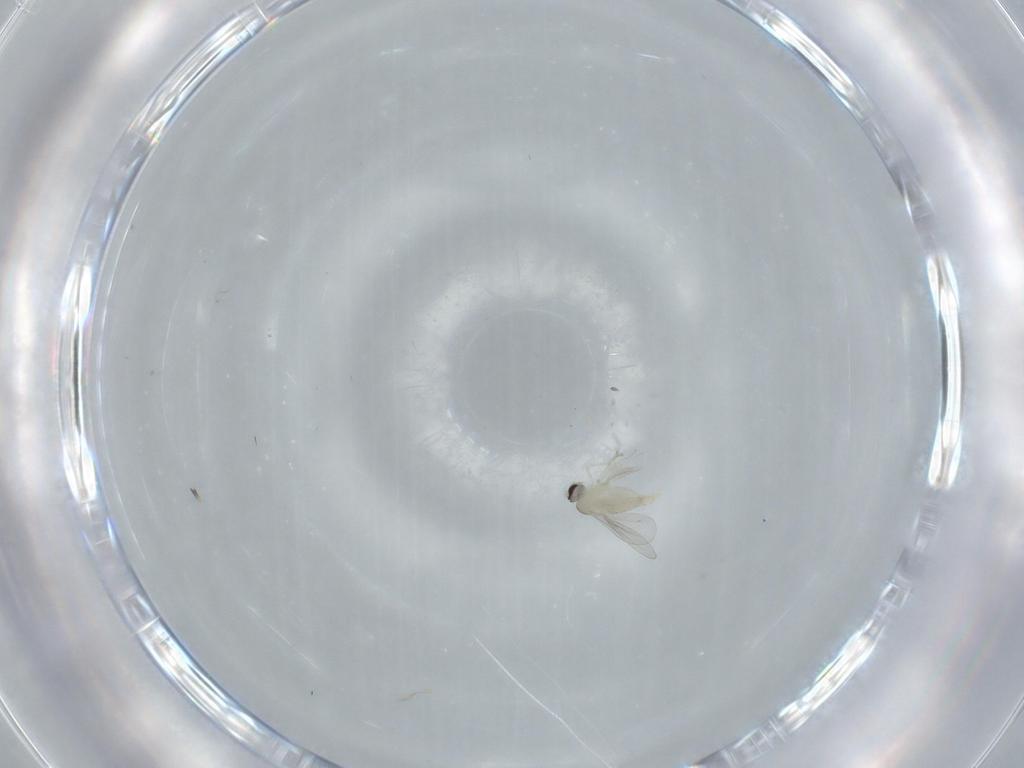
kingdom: Animalia
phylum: Arthropoda
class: Insecta
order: Diptera
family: Cecidomyiidae
